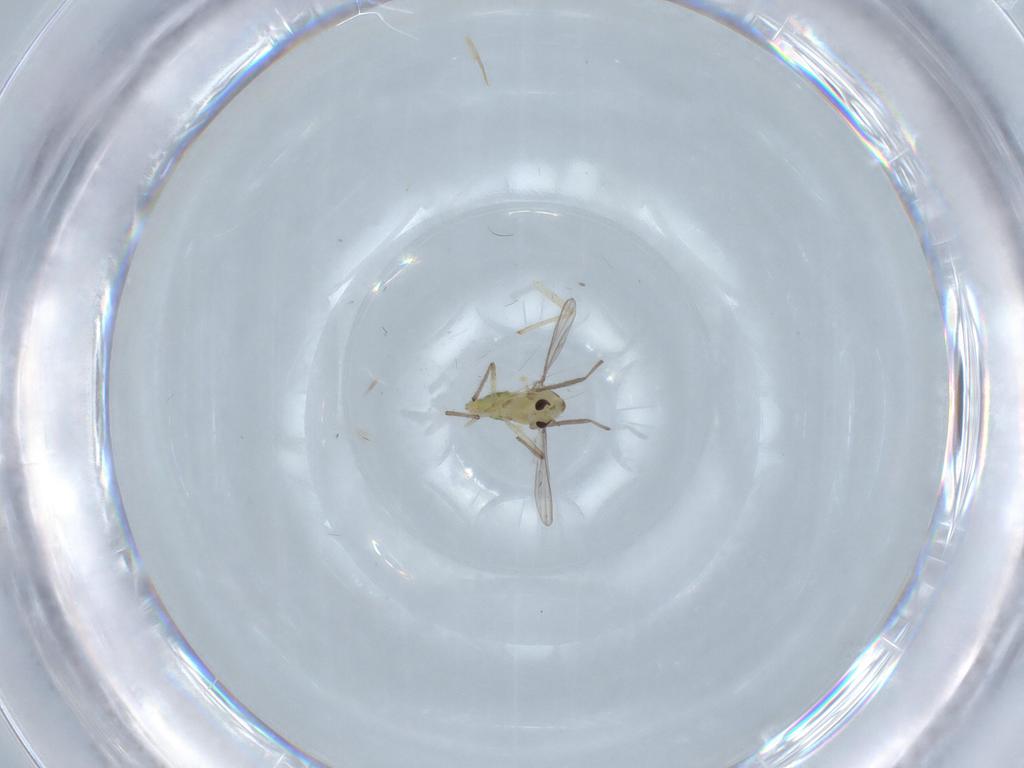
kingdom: Animalia
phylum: Arthropoda
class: Insecta
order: Diptera
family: Chironomidae
